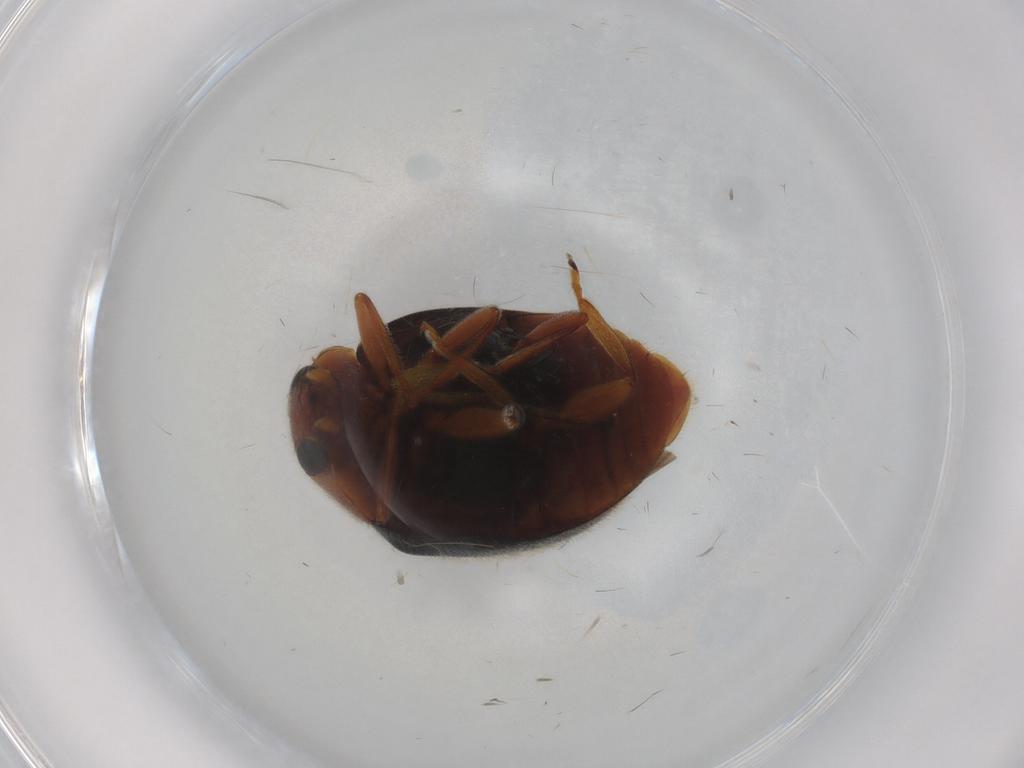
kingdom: Animalia
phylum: Arthropoda
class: Insecta
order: Coleoptera
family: Coccinellidae
